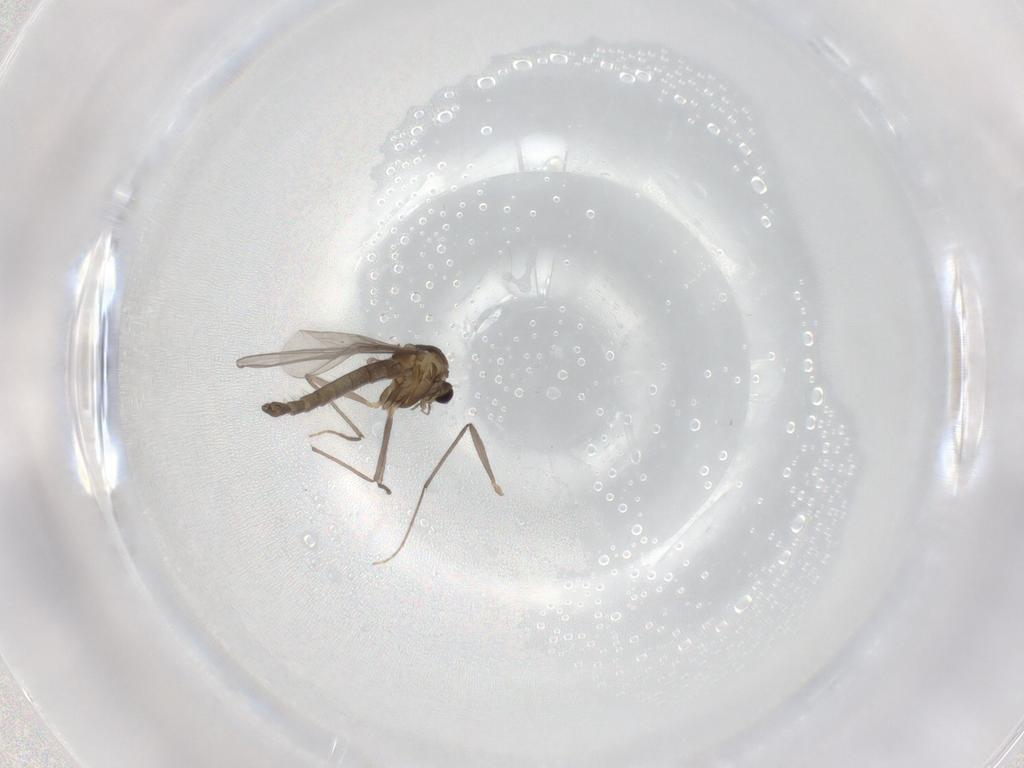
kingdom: Animalia
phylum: Arthropoda
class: Insecta
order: Diptera
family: Chironomidae
